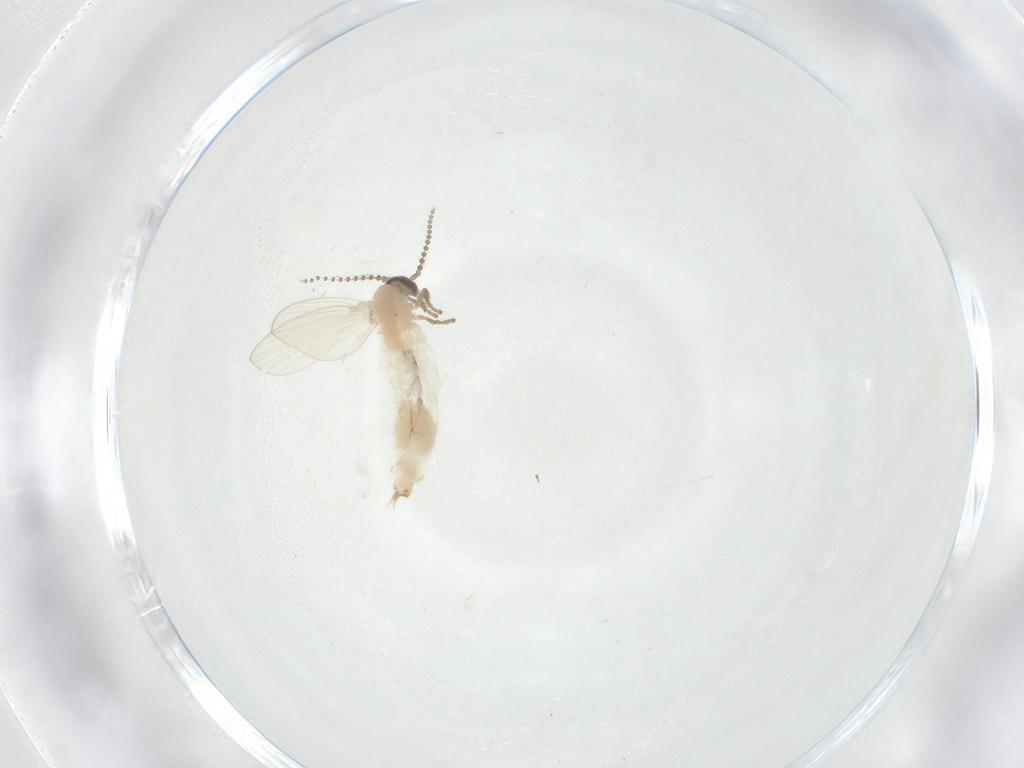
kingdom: Animalia
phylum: Arthropoda
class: Insecta
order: Diptera
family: Cecidomyiidae
